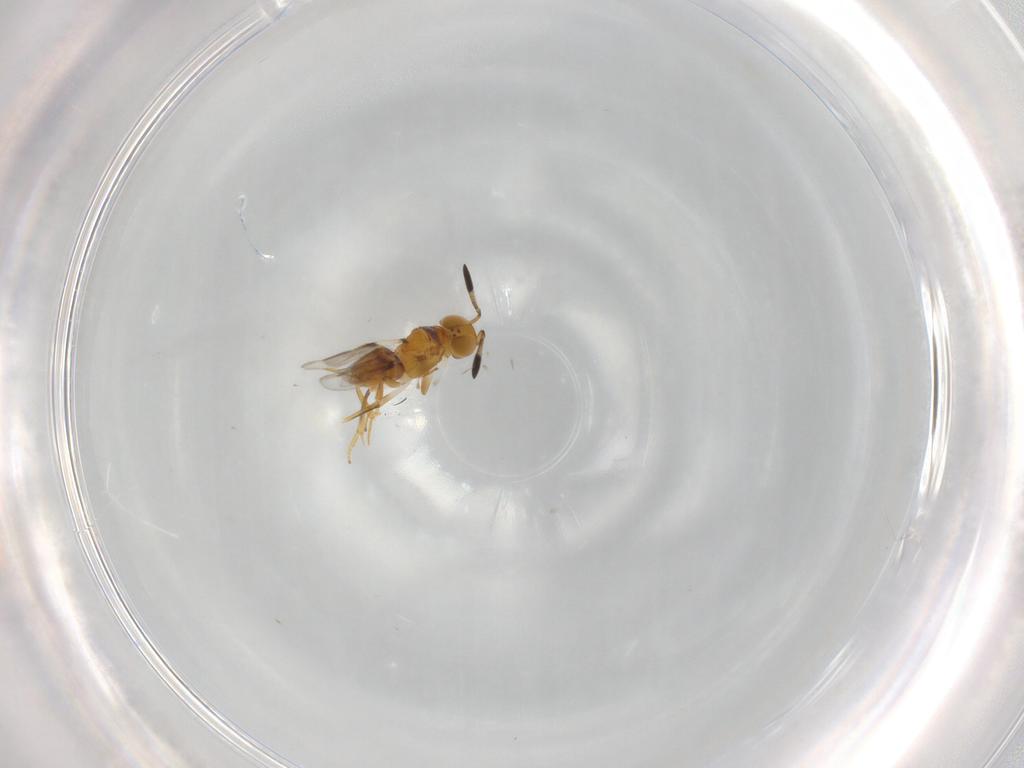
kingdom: Animalia
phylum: Arthropoda
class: Insecta
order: Hymenoptera
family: Encyrtidae
